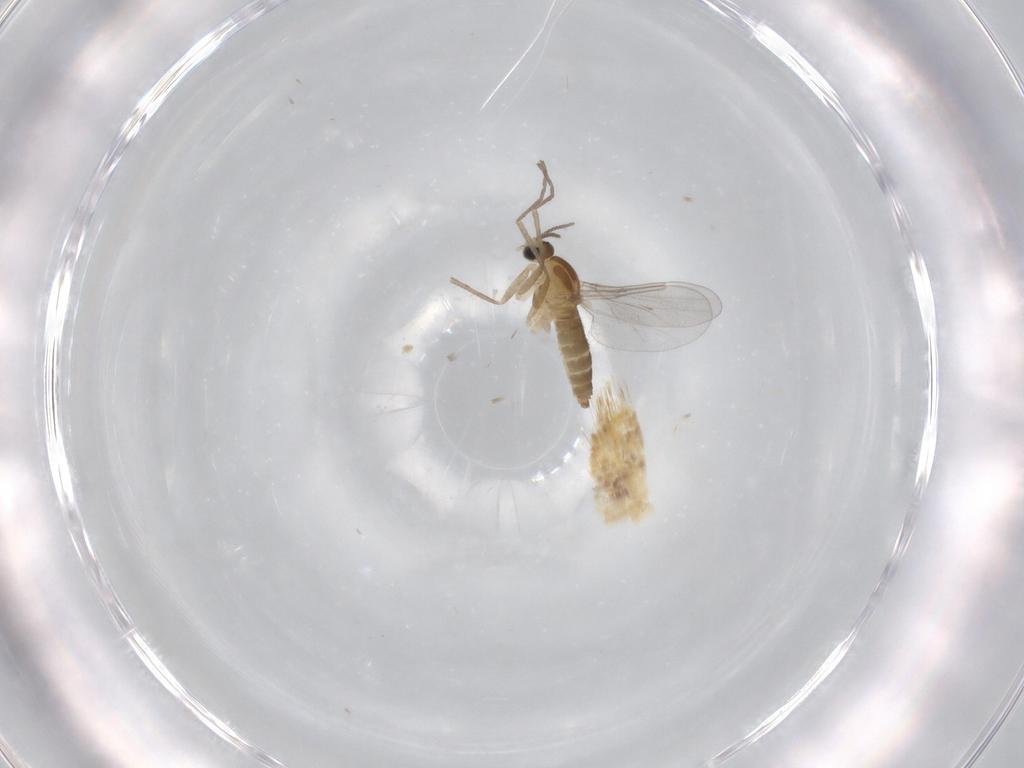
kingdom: Animalia
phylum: Arthropoda
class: Insecta
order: Diptera
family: Cecidomyiidae
